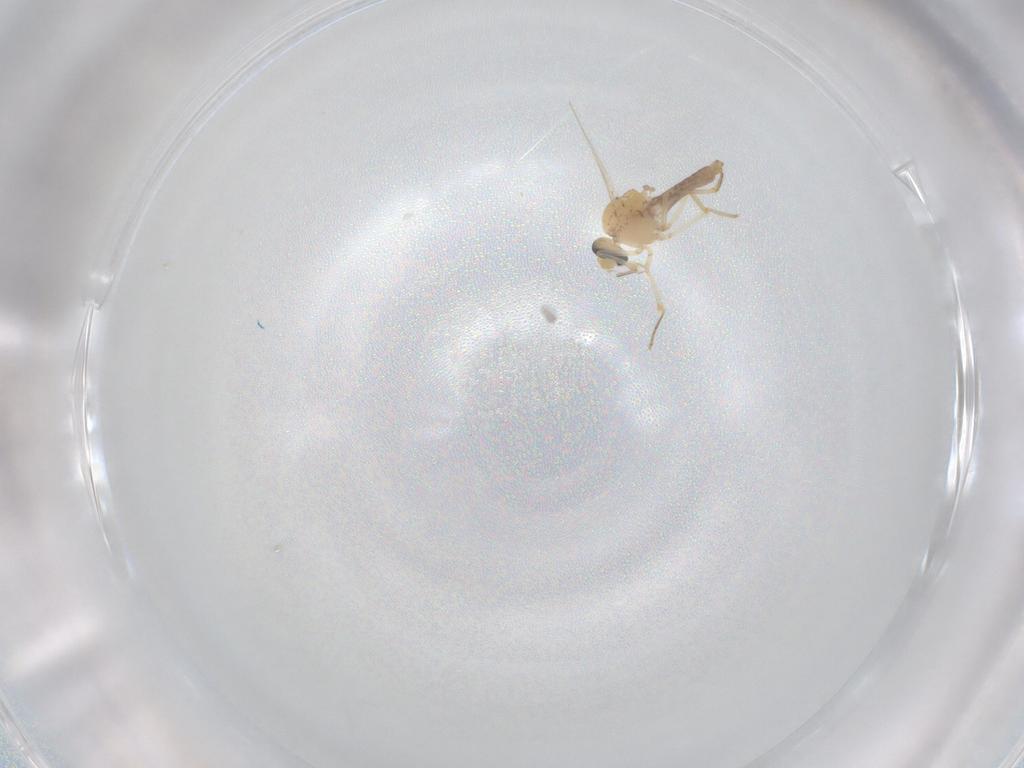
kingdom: Animalia
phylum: Arthropoda
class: Insecta
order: Diptera
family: Ceratopogonidae
